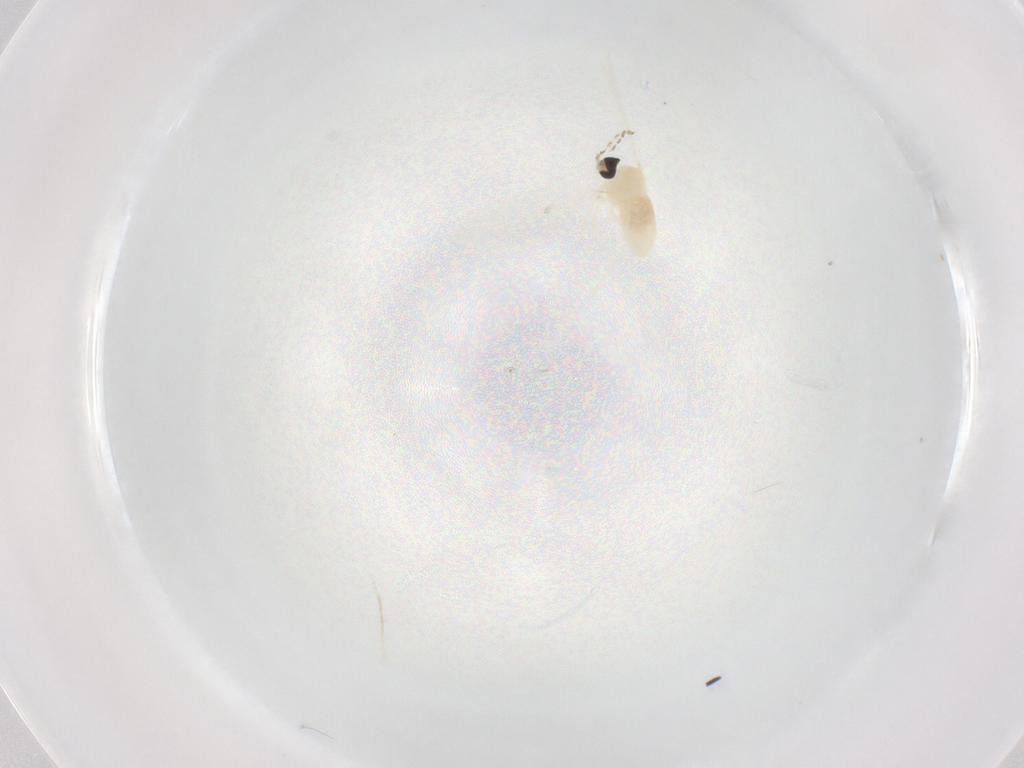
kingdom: Animalia
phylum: Arthropoda
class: Insecta
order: Diptera
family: Cecidomyiidae
